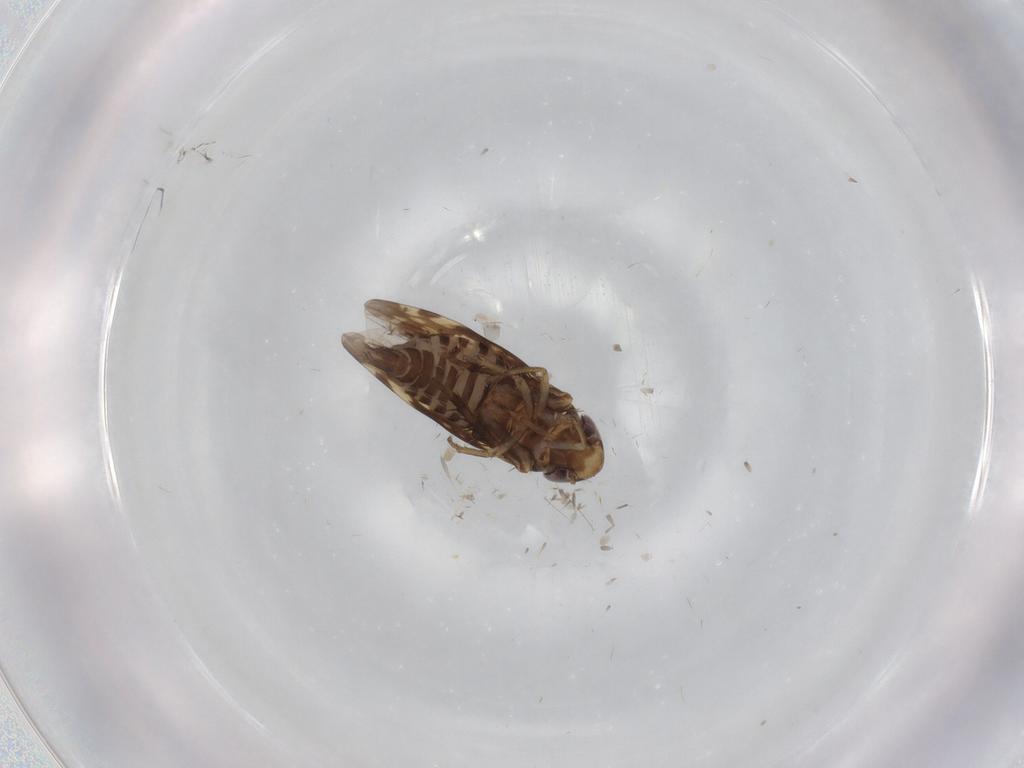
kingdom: Animalia
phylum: Arthropoda
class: Insecta
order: Hemiptera
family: Cicadellidae
